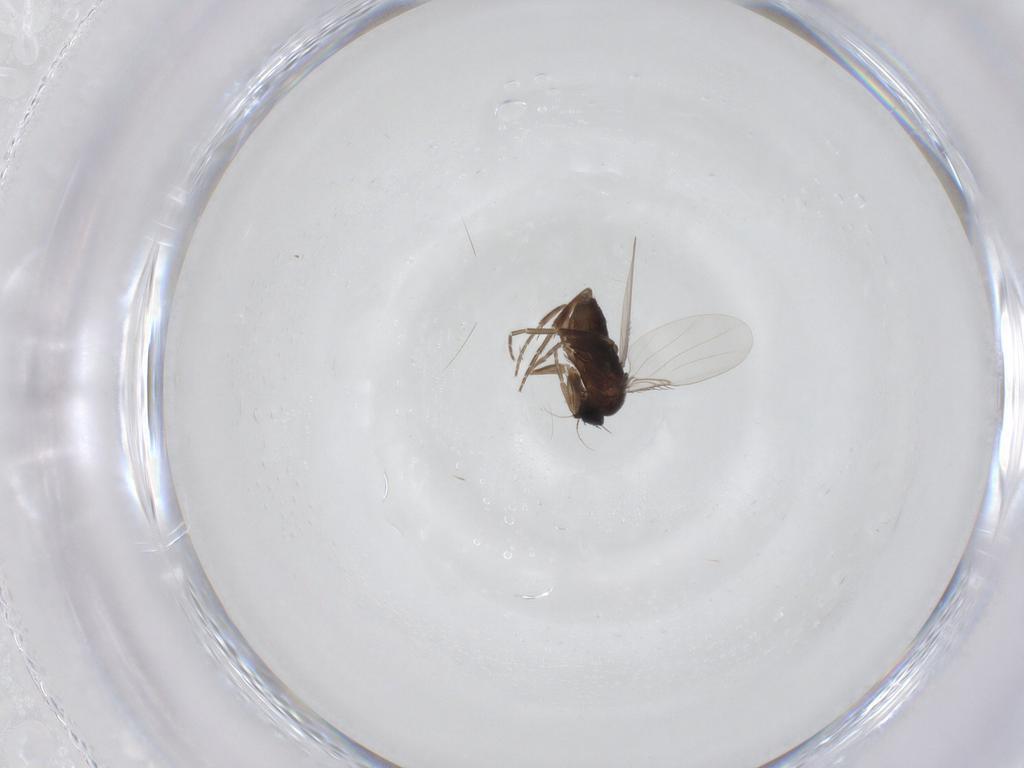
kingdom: Animalia
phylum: Arthropoda
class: Insecta
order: Diptera
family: Phoridae
